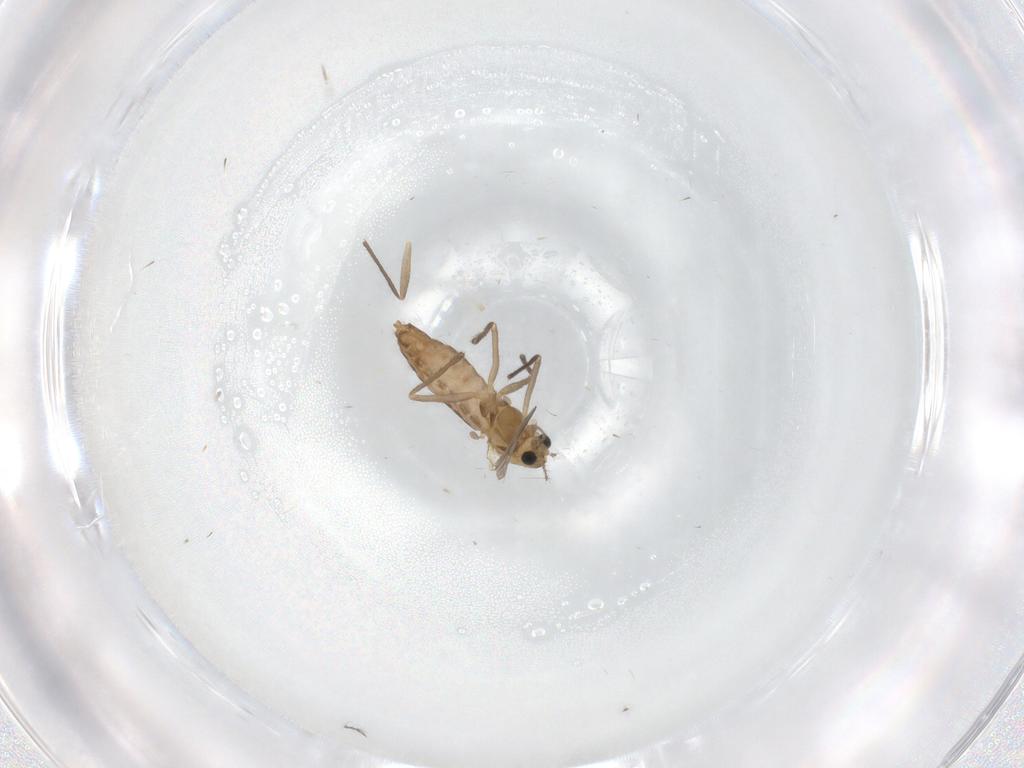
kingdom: Animalia
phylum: Arthropoda
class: Insecta
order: Diptera
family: Chironomidae
